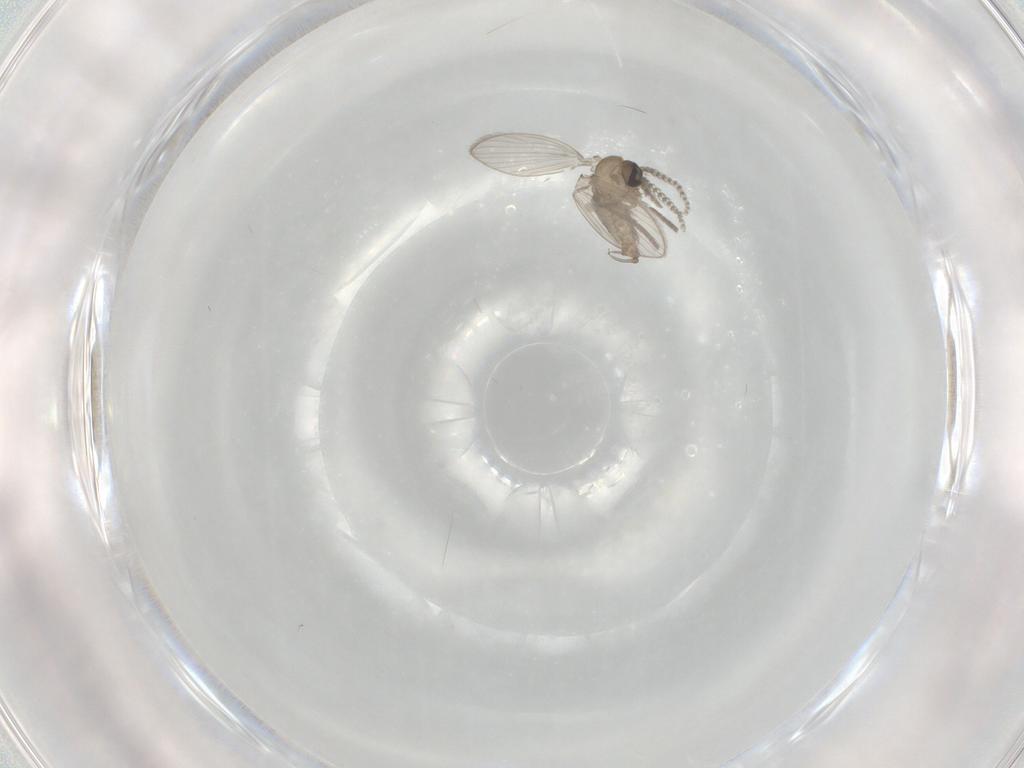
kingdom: Animalia
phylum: Arthropoda
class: Insecta
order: Diptera
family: Psychodidae
